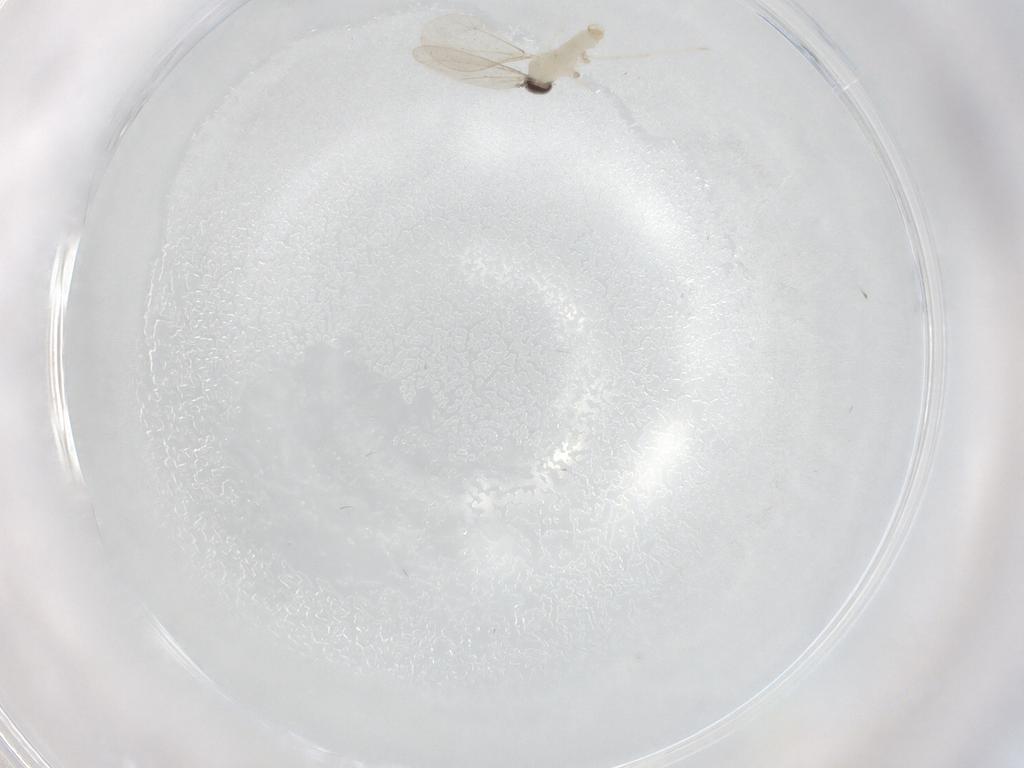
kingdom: Animalia
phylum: Arthropoda
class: Insecta
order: Diptera
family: Cecidomyiidae
